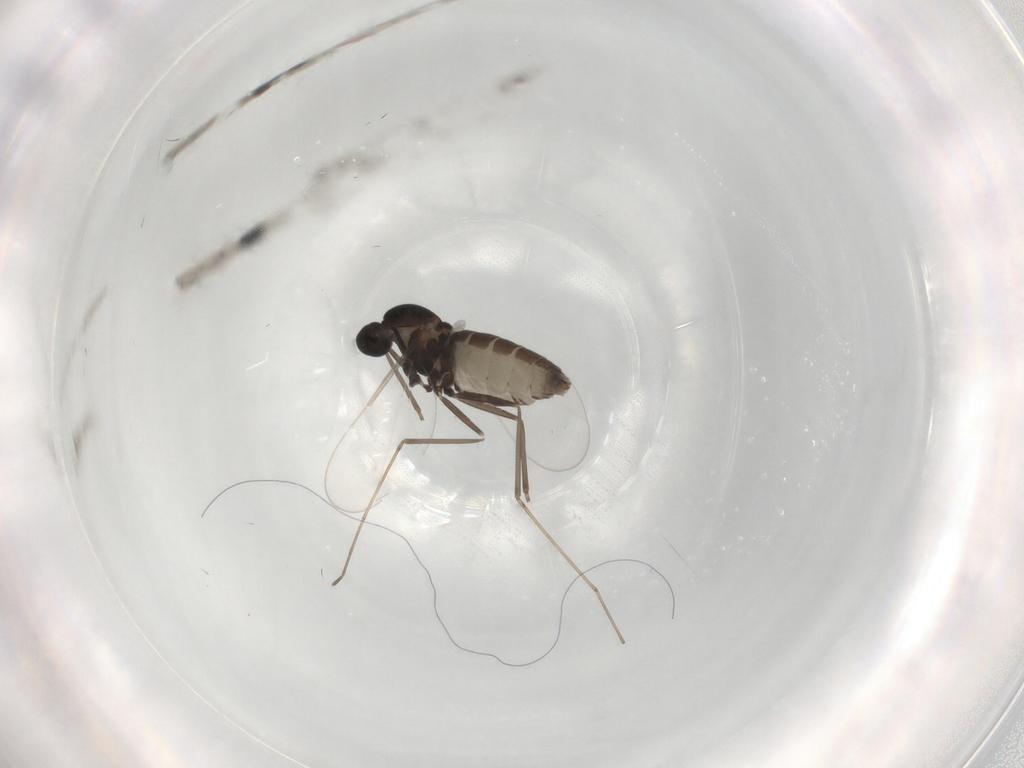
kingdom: Animalia
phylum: Arthropoda
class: Insecta
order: Diptera
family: Cecidomyiidae
